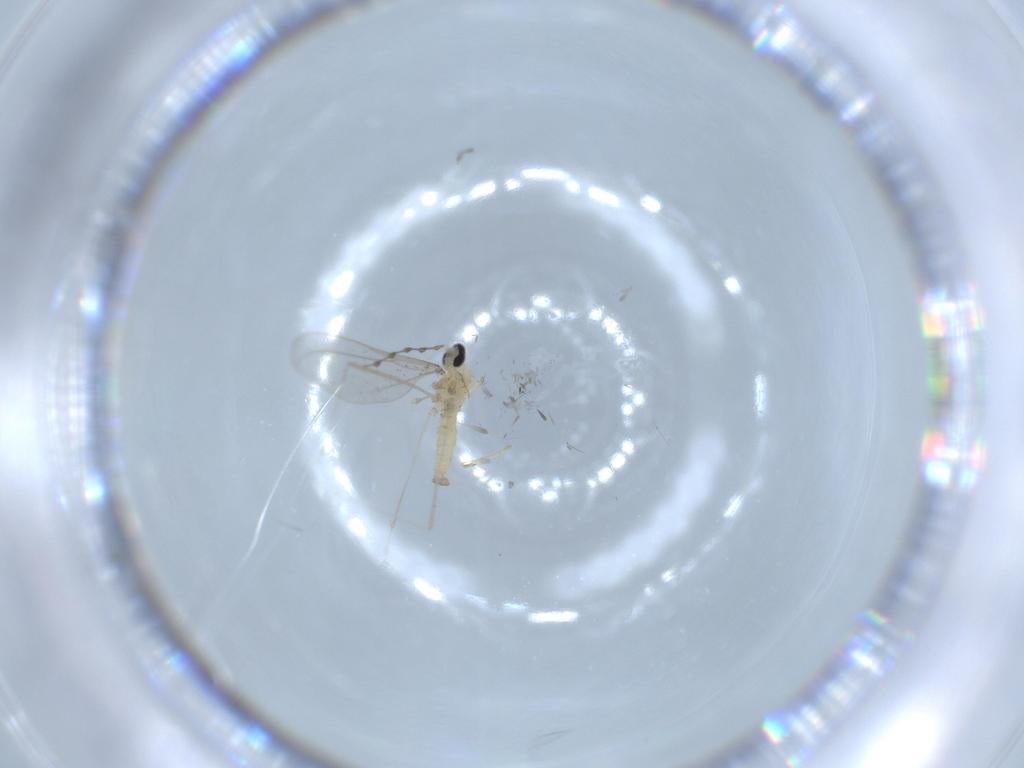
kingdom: Animalia
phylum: Arthropoda
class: Insecta
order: Diptera
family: Cecidomyiidae
